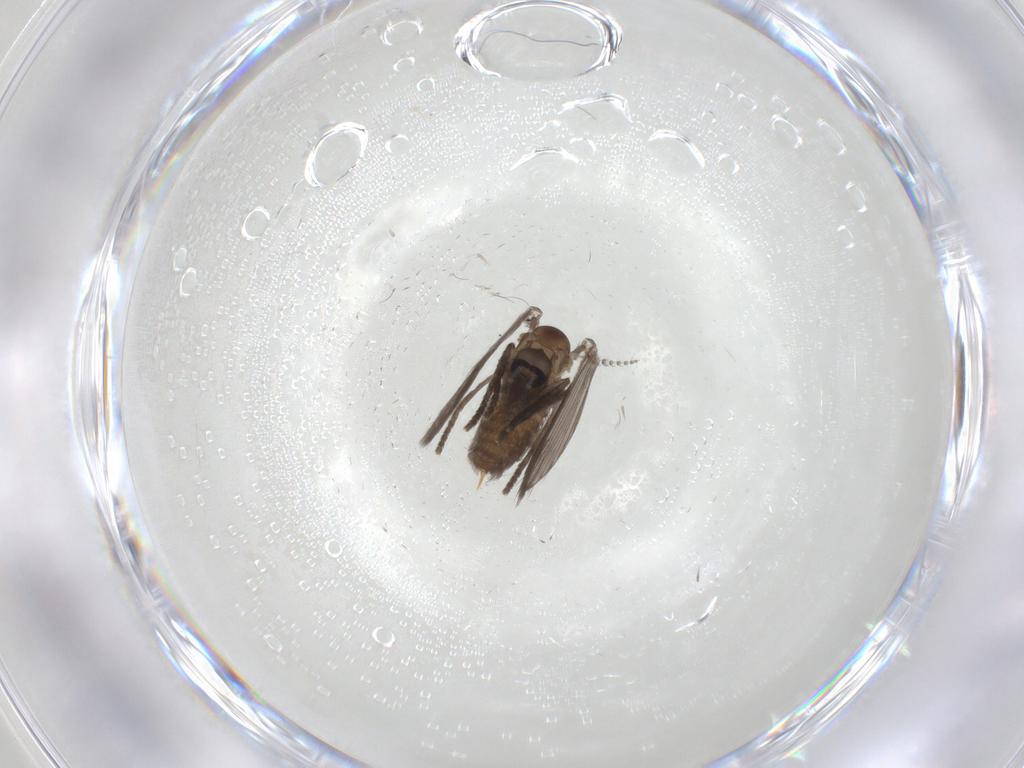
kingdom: Animalia
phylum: Arthropoda
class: Insecta
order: Diptera
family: Psychodidae
